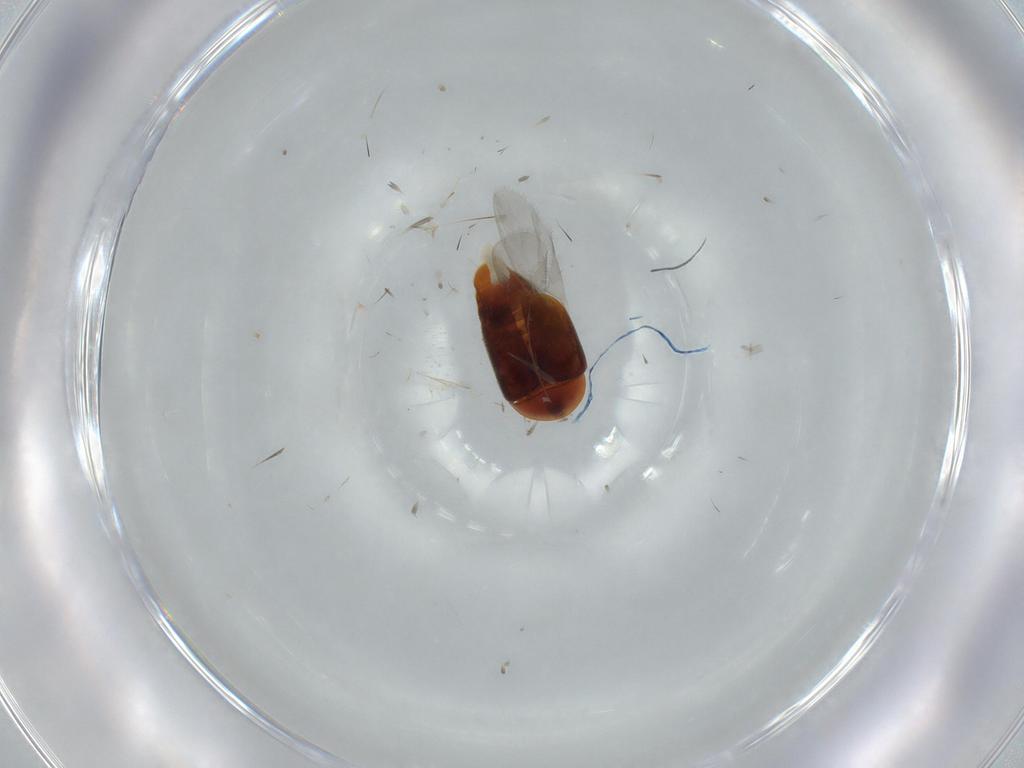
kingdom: Animalia
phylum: Arthropoda
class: Insecta
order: Coleoptera
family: Corylophidae
